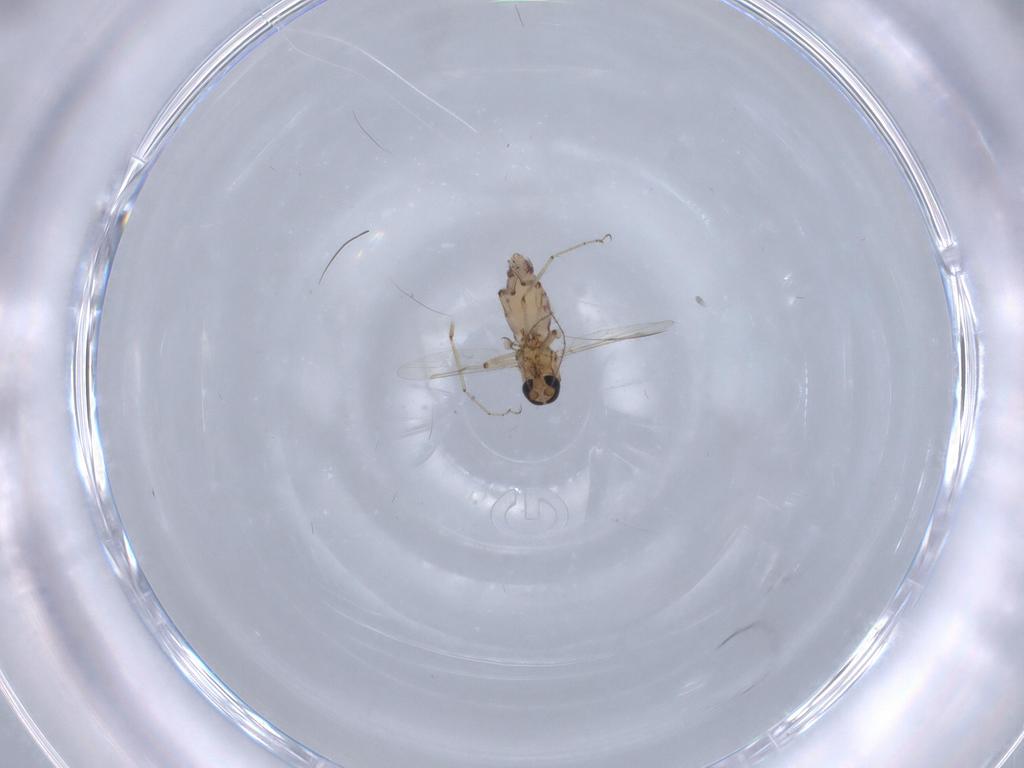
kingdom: Animalia
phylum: Arthropoda
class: Insecta
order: Diptera
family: Ceratopogonidae
